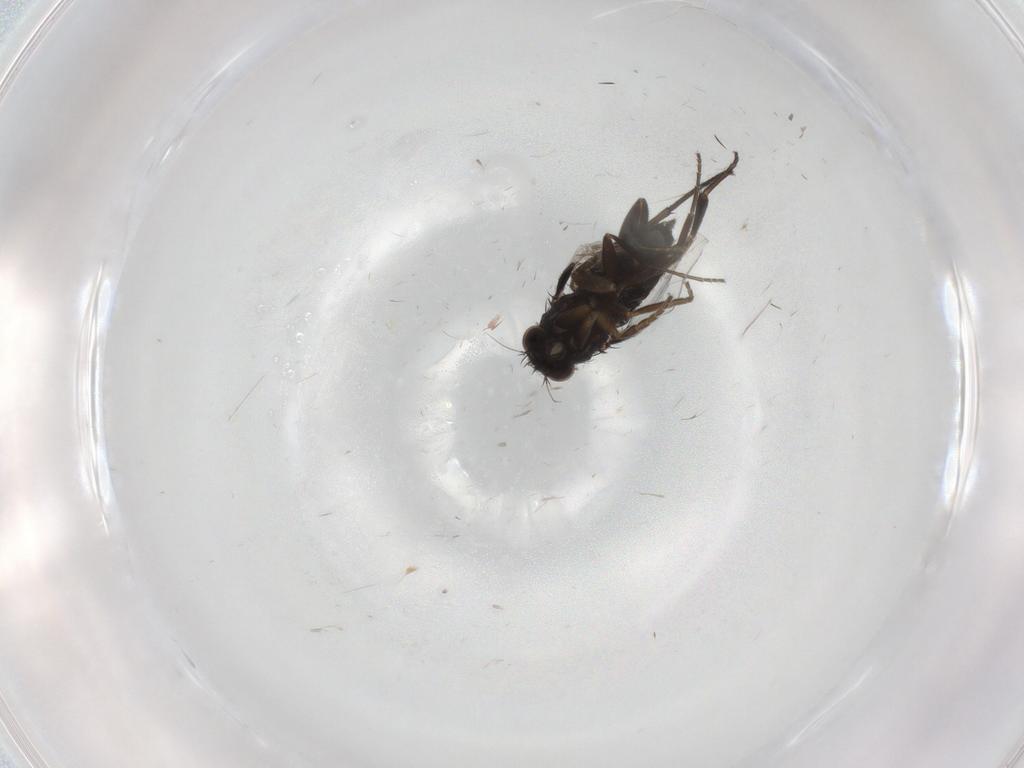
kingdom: Animalia
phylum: Arthropoda
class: Insecta
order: Diptera
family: Phoridae
